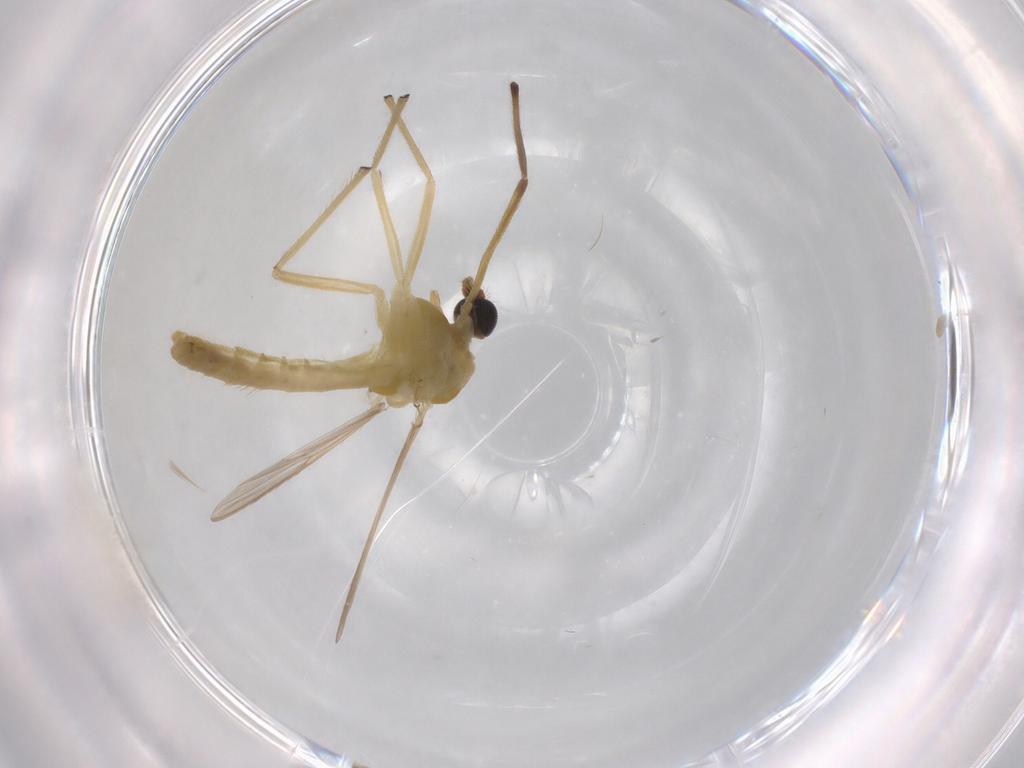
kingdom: Animalia
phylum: Arthropoda
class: Insecta
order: Diptera
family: Chironomidae
